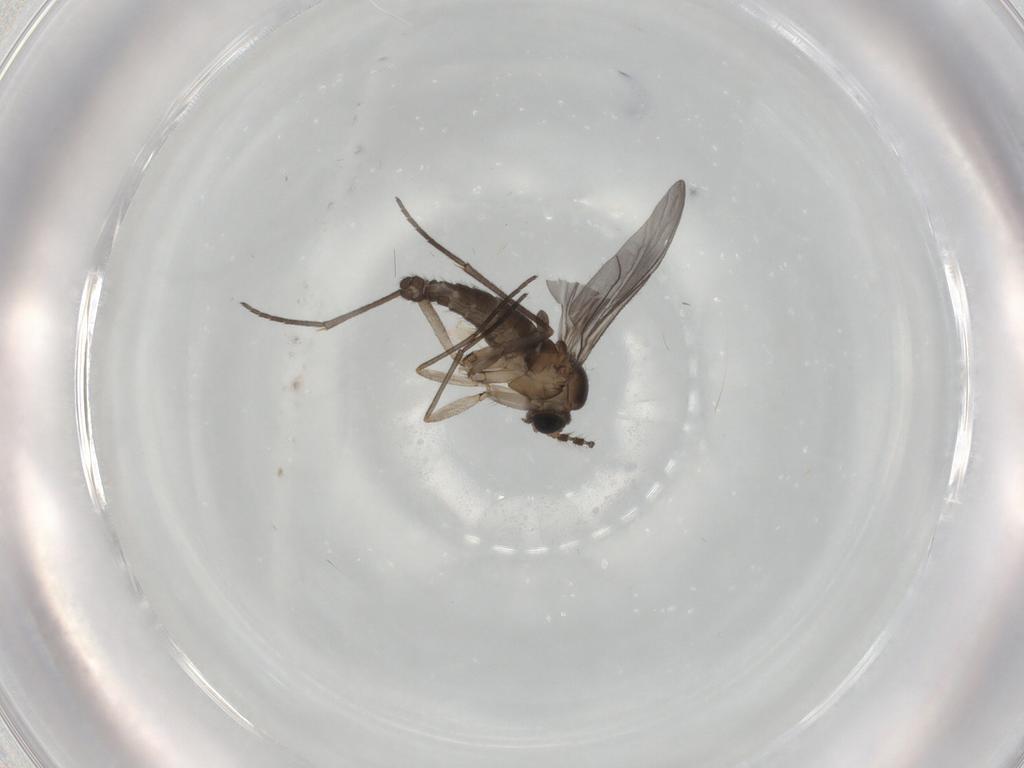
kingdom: Animalia
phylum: Arthropoda
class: Insecta
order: Diptera
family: Sciaridae
